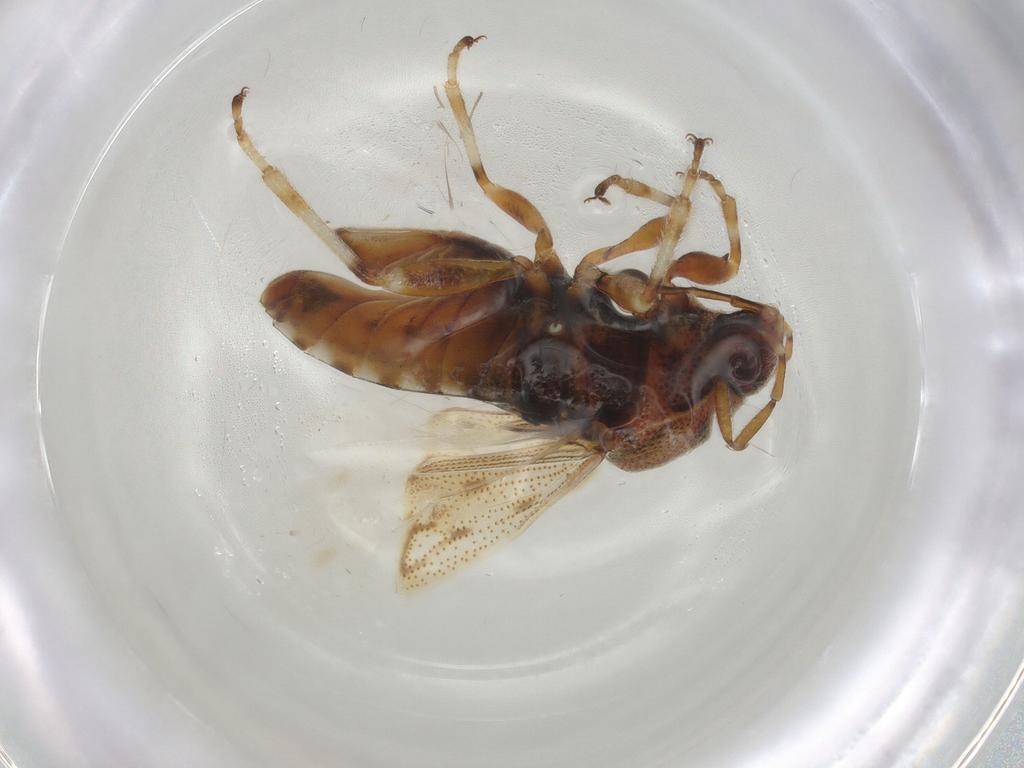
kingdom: Animalia
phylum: Arthropoda
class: Insecta
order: Hemiptera
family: Rhopalidae
